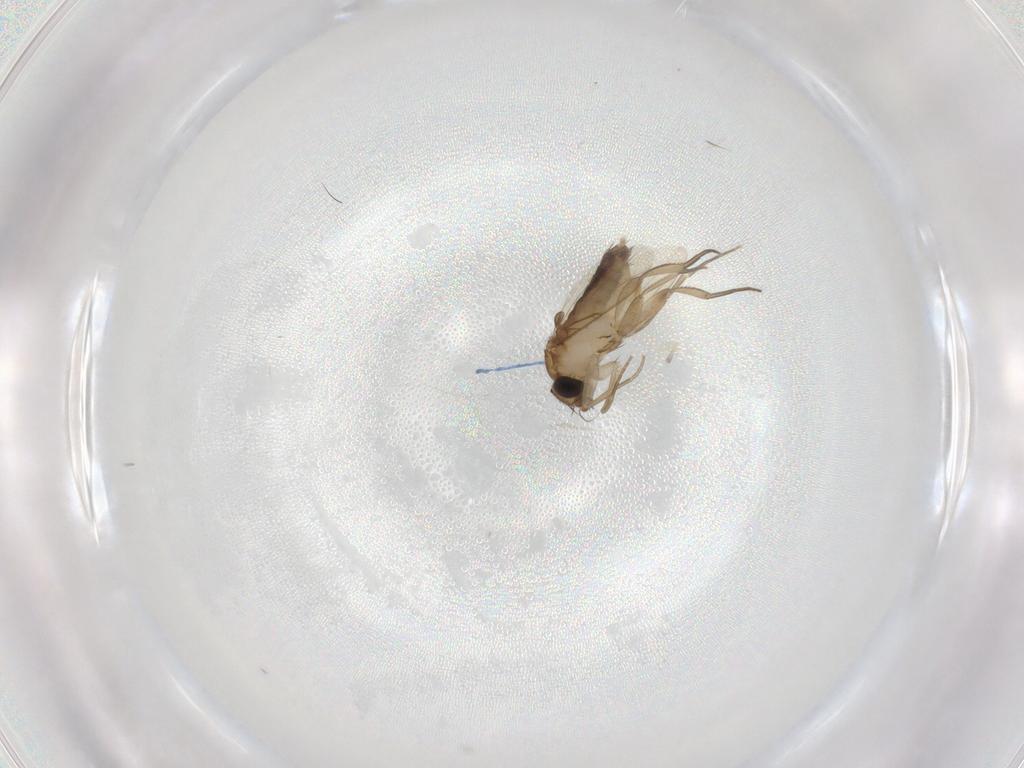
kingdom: Animalia
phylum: Arthropoda
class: Insecta
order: Diptera
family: Phoridae
